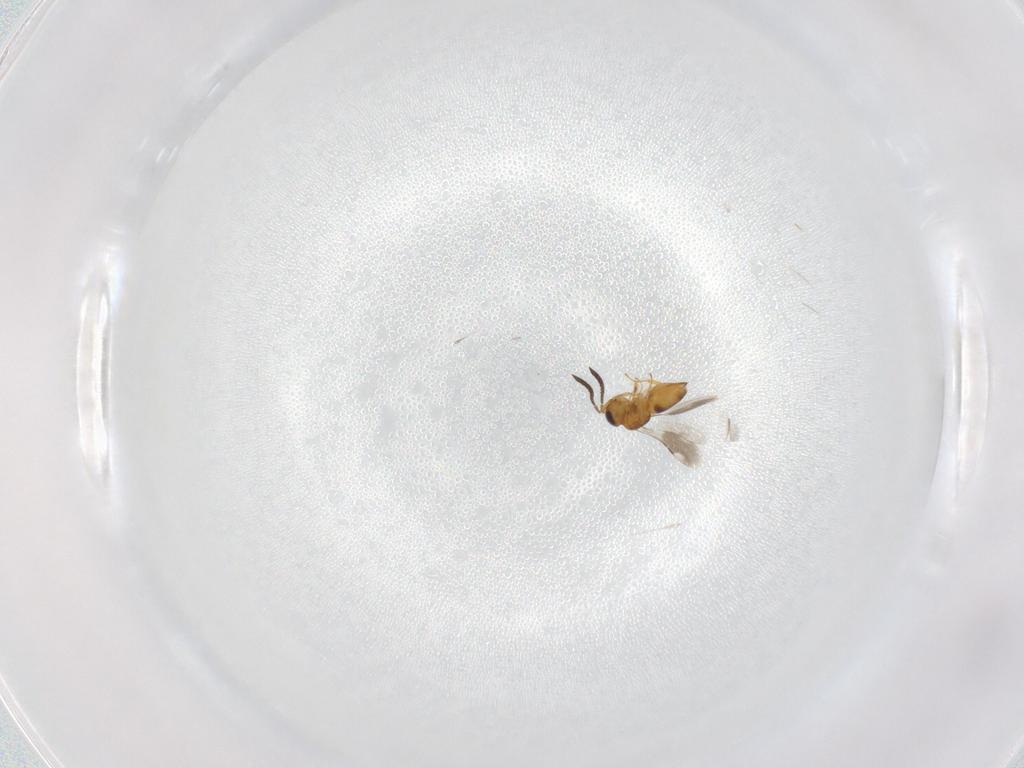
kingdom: Animalia
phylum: Arthropoda
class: Insecta
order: Hymenoptera
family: Ceraphronidae
